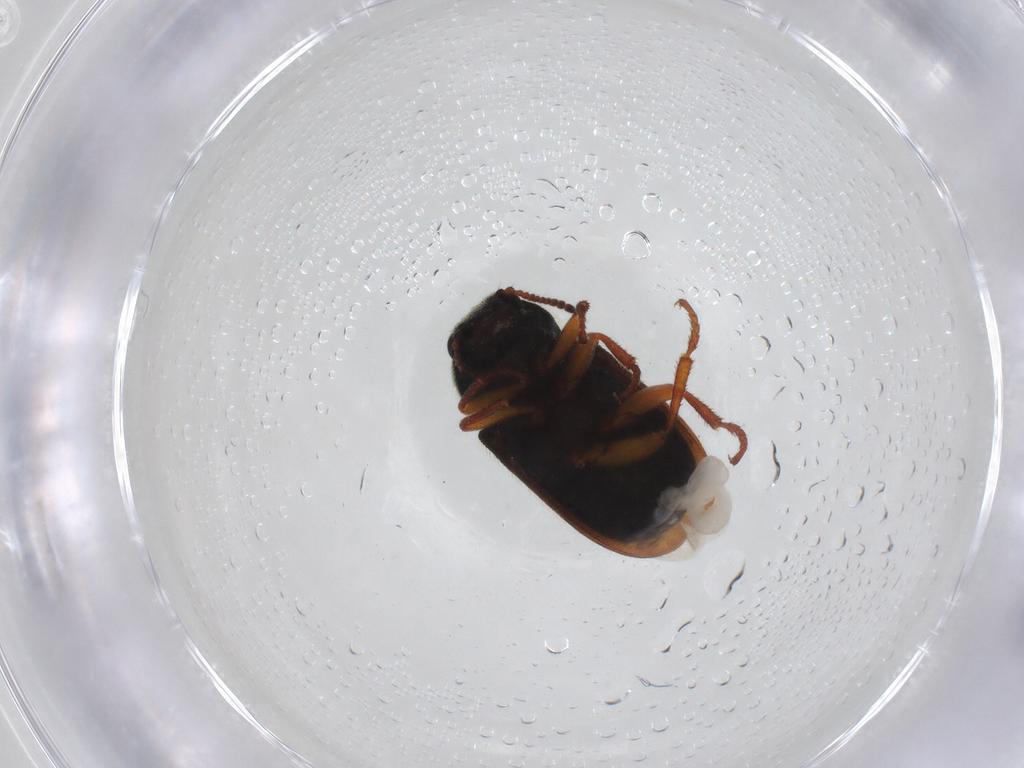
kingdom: Animalia
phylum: Arthropoda
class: Insecta
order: Coleoptera
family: Melyridae
